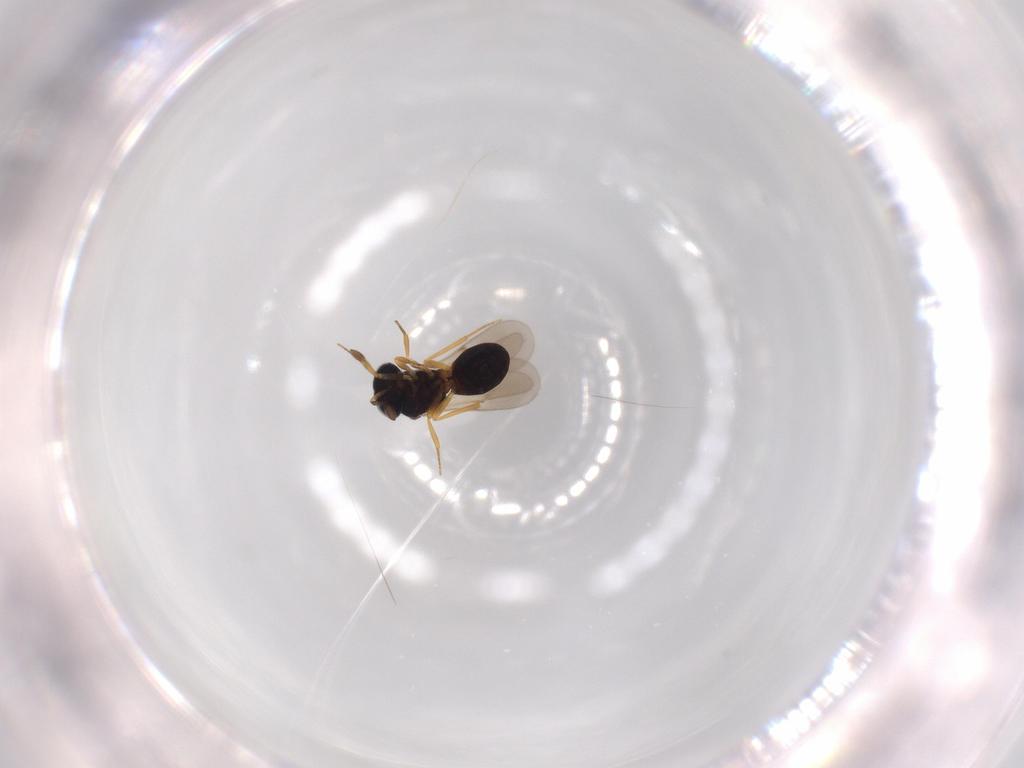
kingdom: Animalia
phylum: Arthropoda
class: Insecta
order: Hymenoptera
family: Scelionidae
